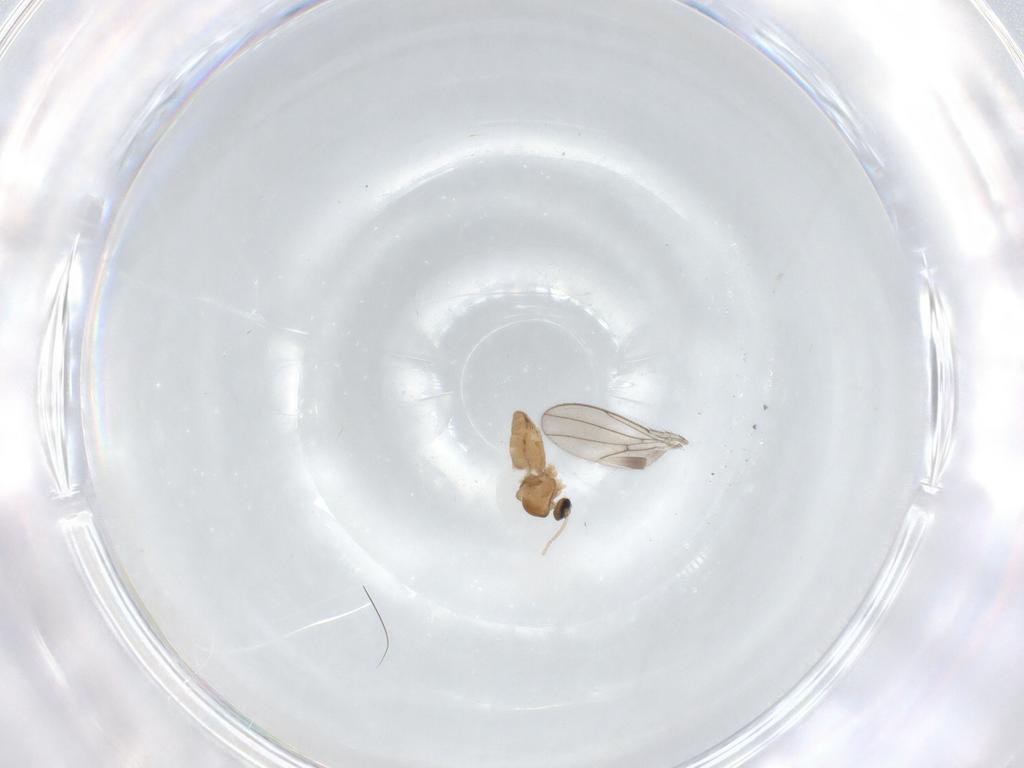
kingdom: Animalia
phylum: Arthropoda
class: Insecta
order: Diptera
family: Cecidomyiidae
